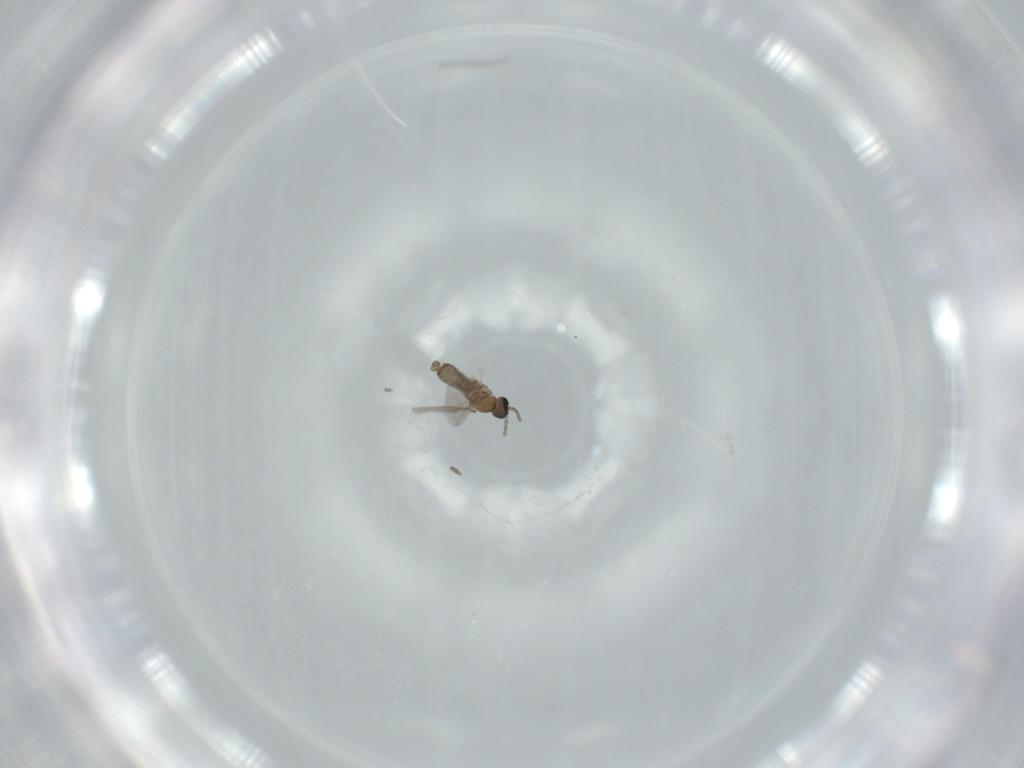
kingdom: Animalia
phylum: Arthropoda
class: Insecta
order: Diptera
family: Cecidomyiidae
